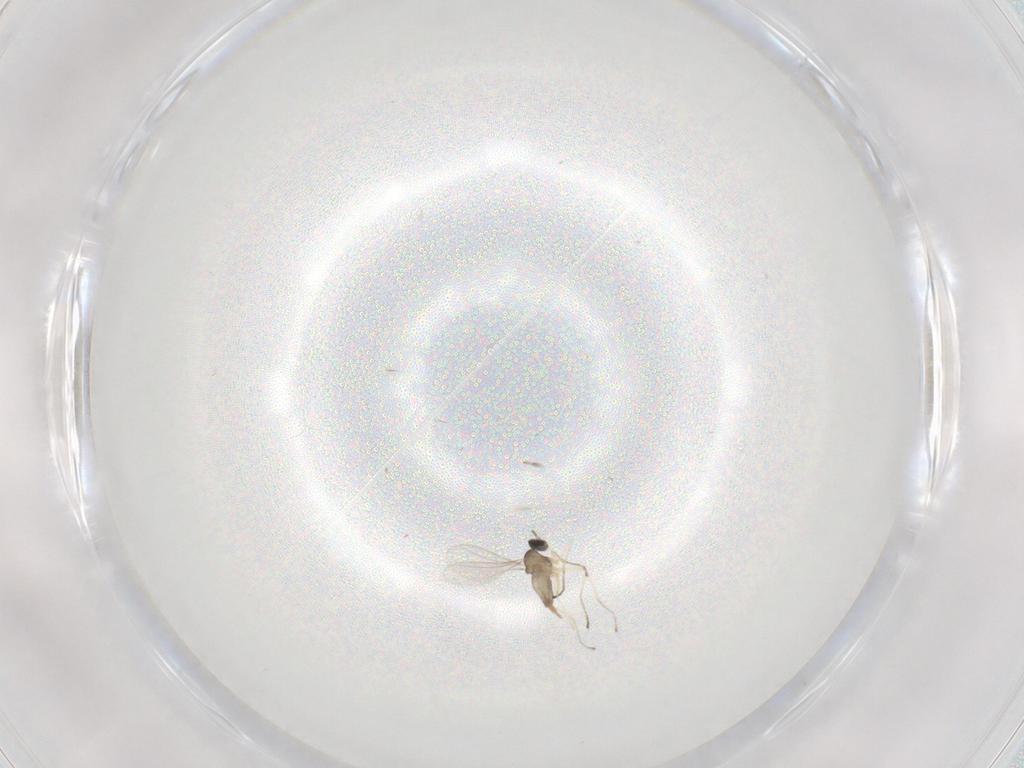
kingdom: Animalia
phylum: Arthropoda
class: Insecta
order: Diptera
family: Cecidomyiidae
